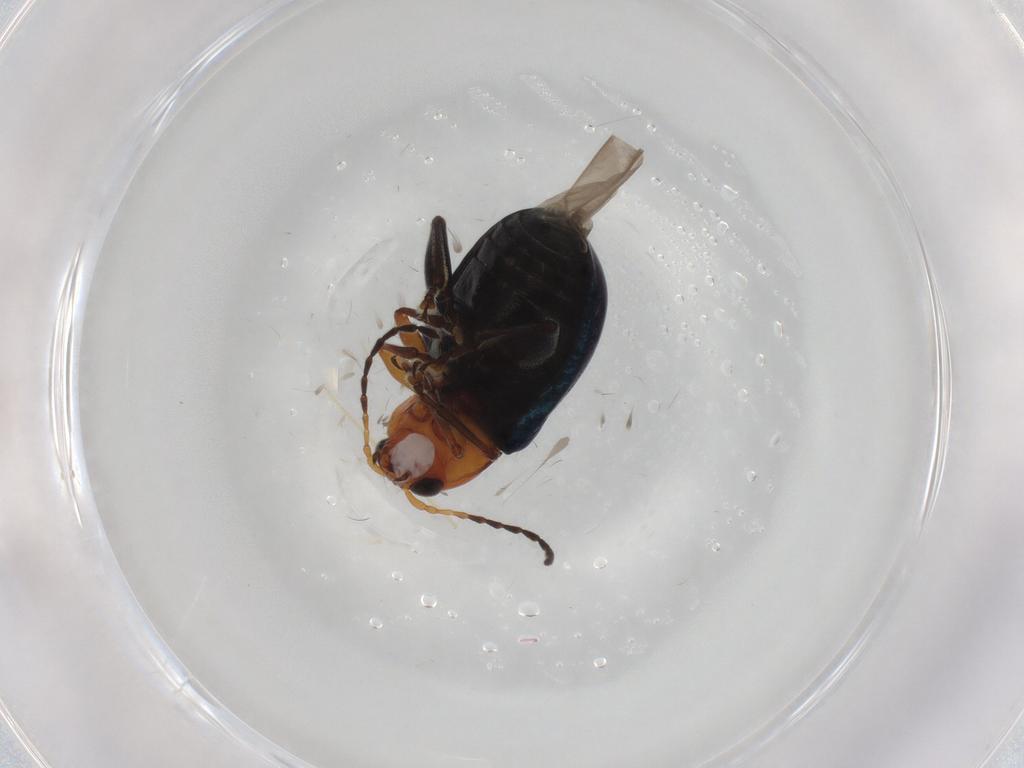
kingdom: Animalia
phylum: Arthropoda
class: Insecta
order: Coleoptera
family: Chrysomelidae
